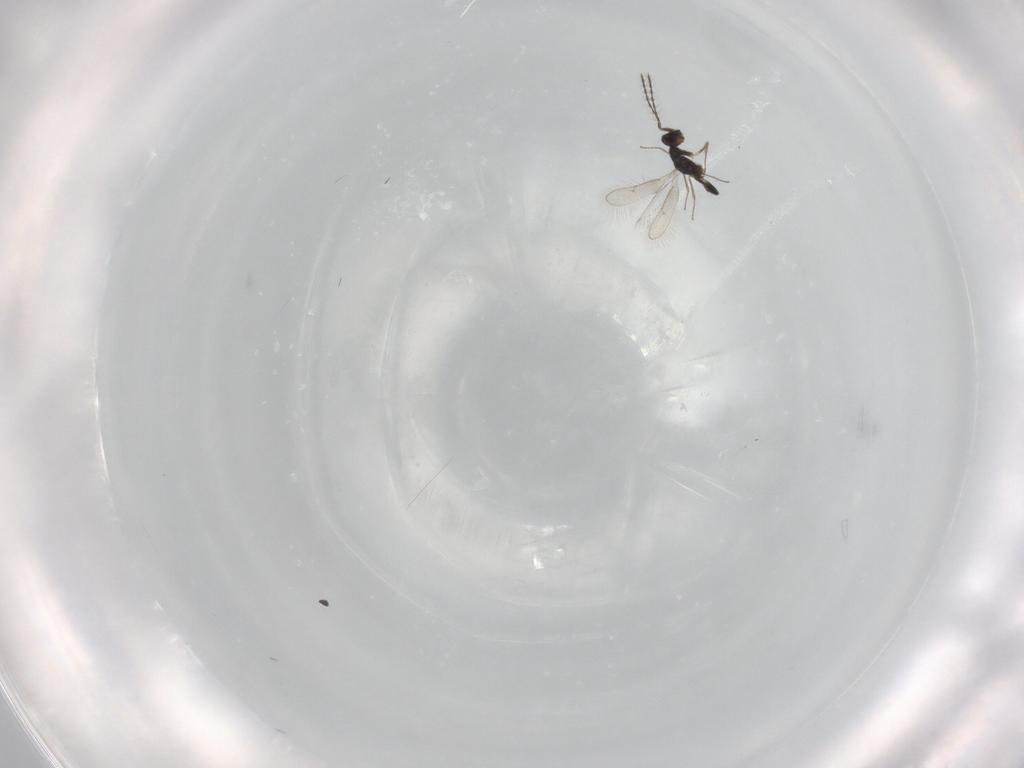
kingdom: Animalia
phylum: Arthropoda
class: Insecta
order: Hymenoptera
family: Pteromalidae
